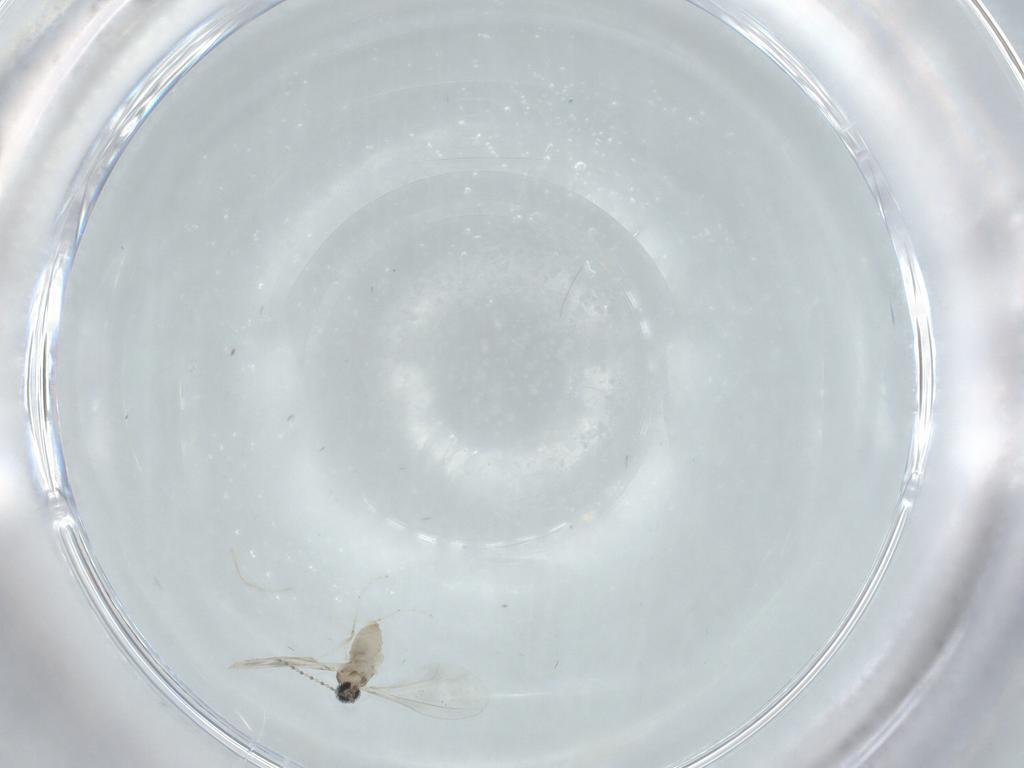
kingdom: Animalia
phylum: Arthropoda
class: Insecta
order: Diptera
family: Cecidomyiidae
